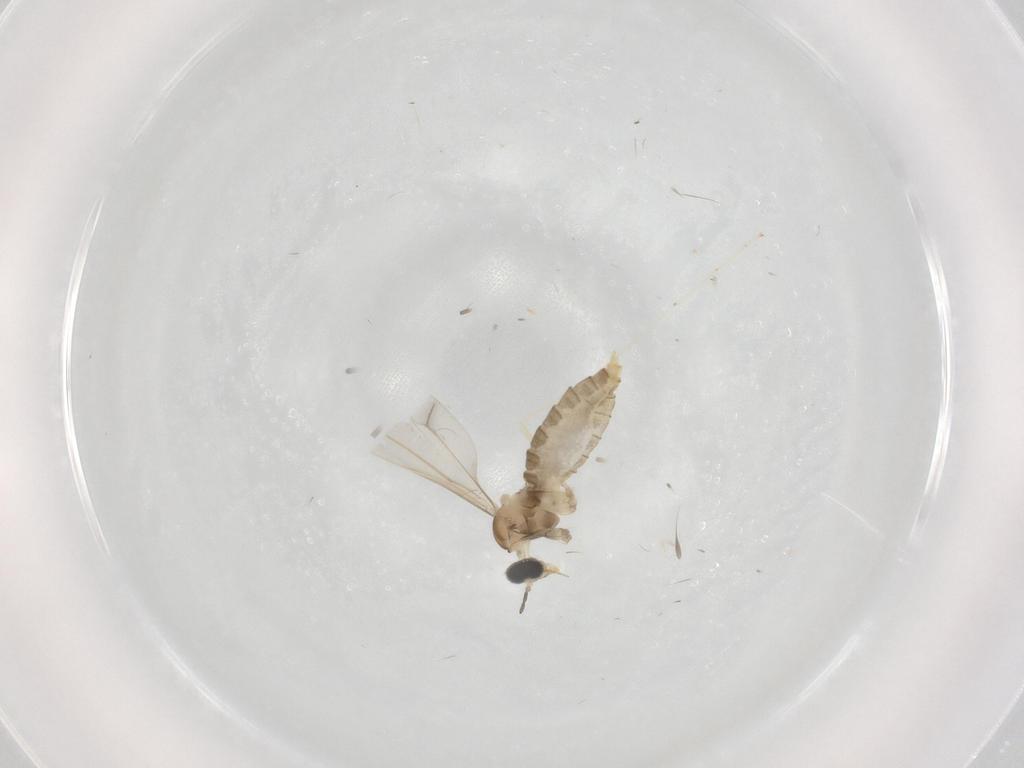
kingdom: Animalia
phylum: Arthropoda
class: Insecta
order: Diptera
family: Cecidomyiidae
